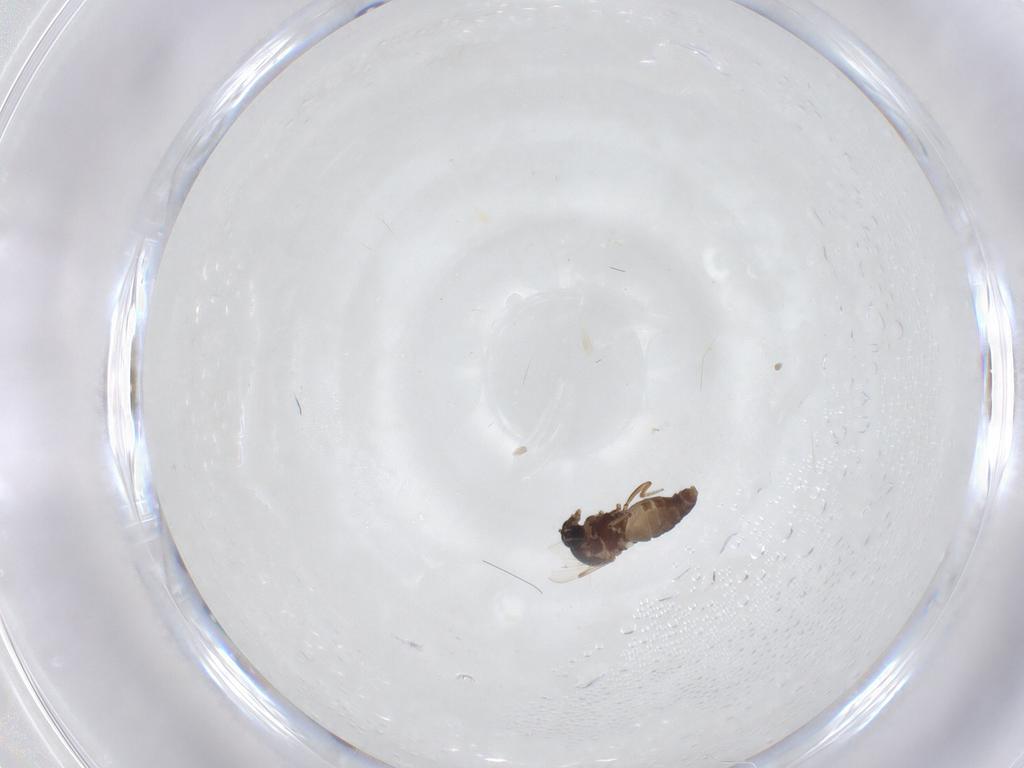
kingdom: Animalia
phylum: Arthropoda
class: Insecta
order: Diptera
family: Ceratopogonidae
